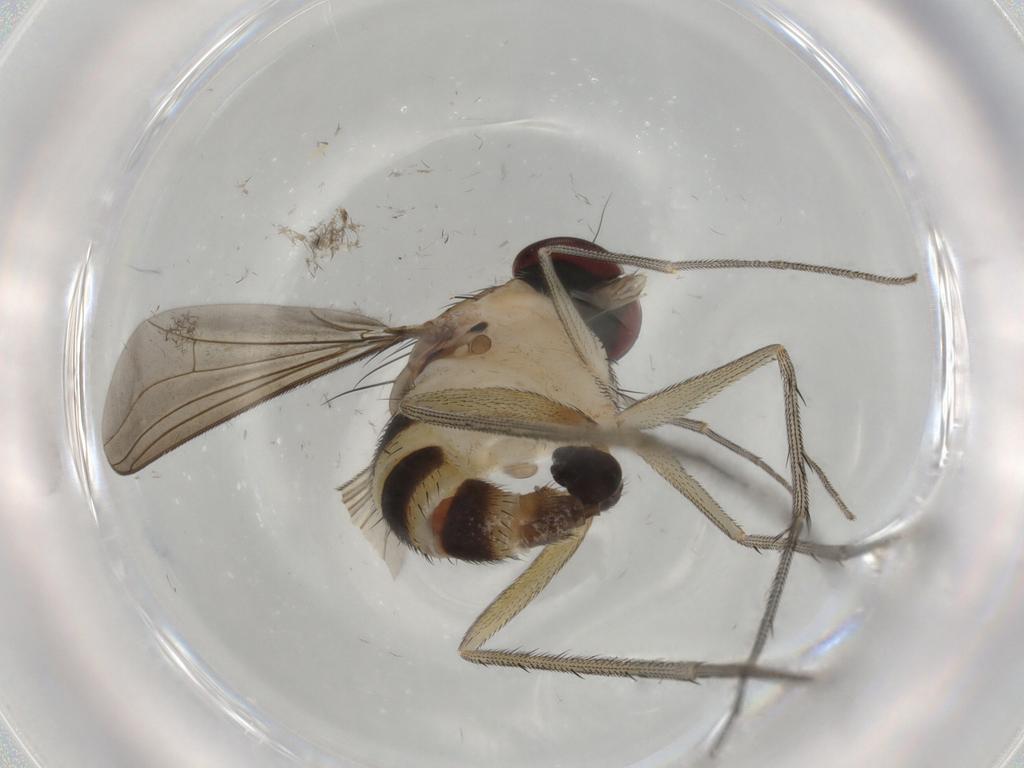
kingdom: Animalia
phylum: Arthropoda
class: Insecta
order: Diptera
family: Dolichopodidae
